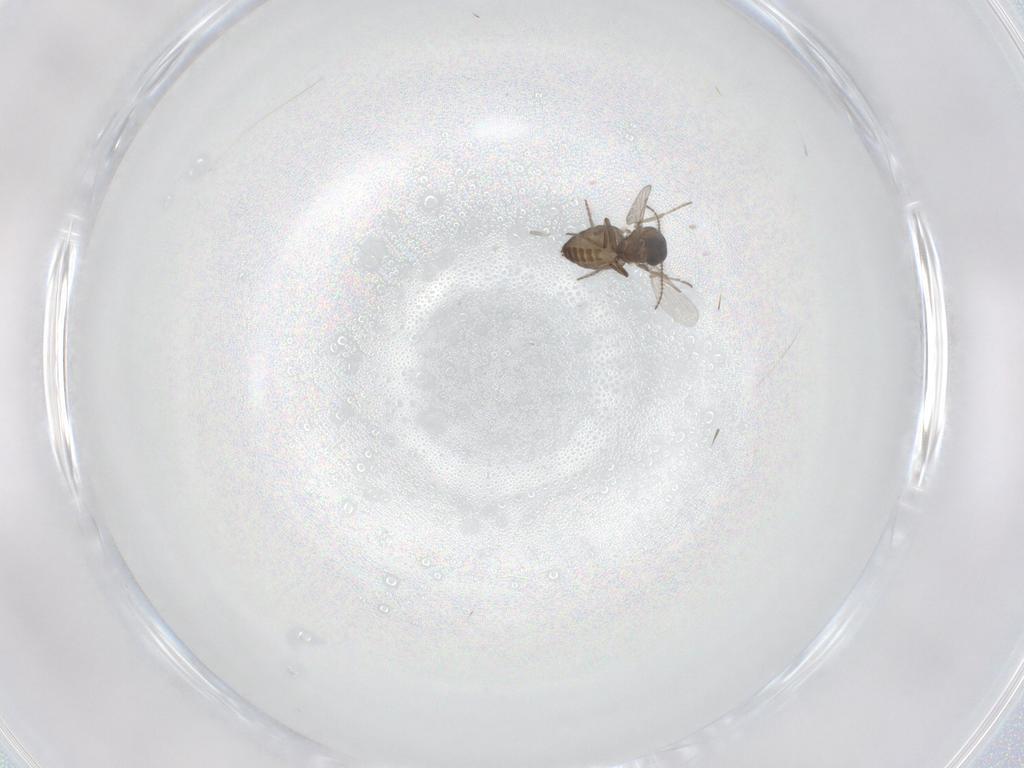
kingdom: Animalia
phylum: Arthropoda
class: Insecta
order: Diptera
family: Ceratopogonidae
